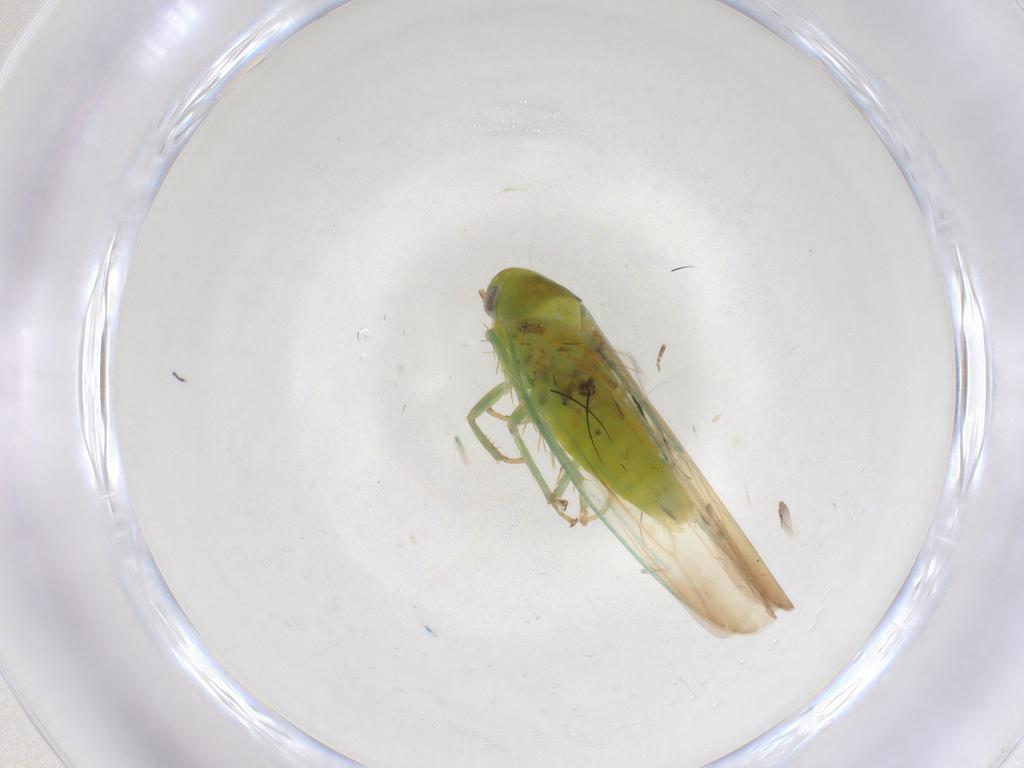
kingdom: Animalia
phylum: Arthropoda
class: Insecta
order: Hemiptera
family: Cicadellidae
